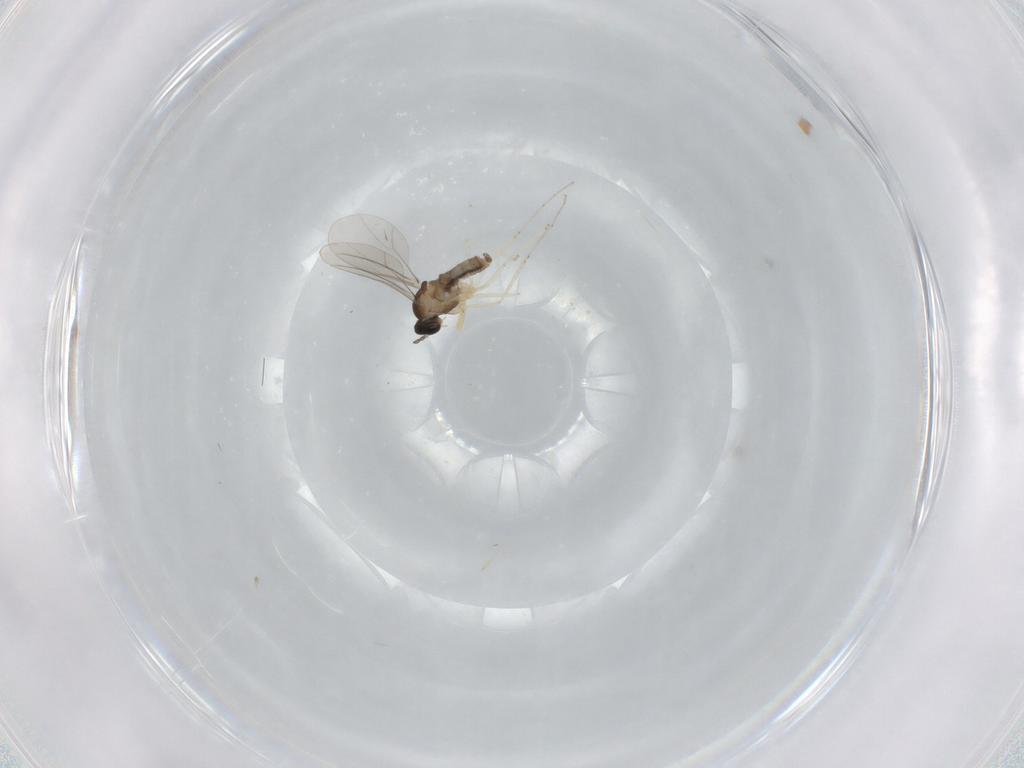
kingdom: Animalia
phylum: Arthropoda
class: Insecta
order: Diptera
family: Chloropidae
